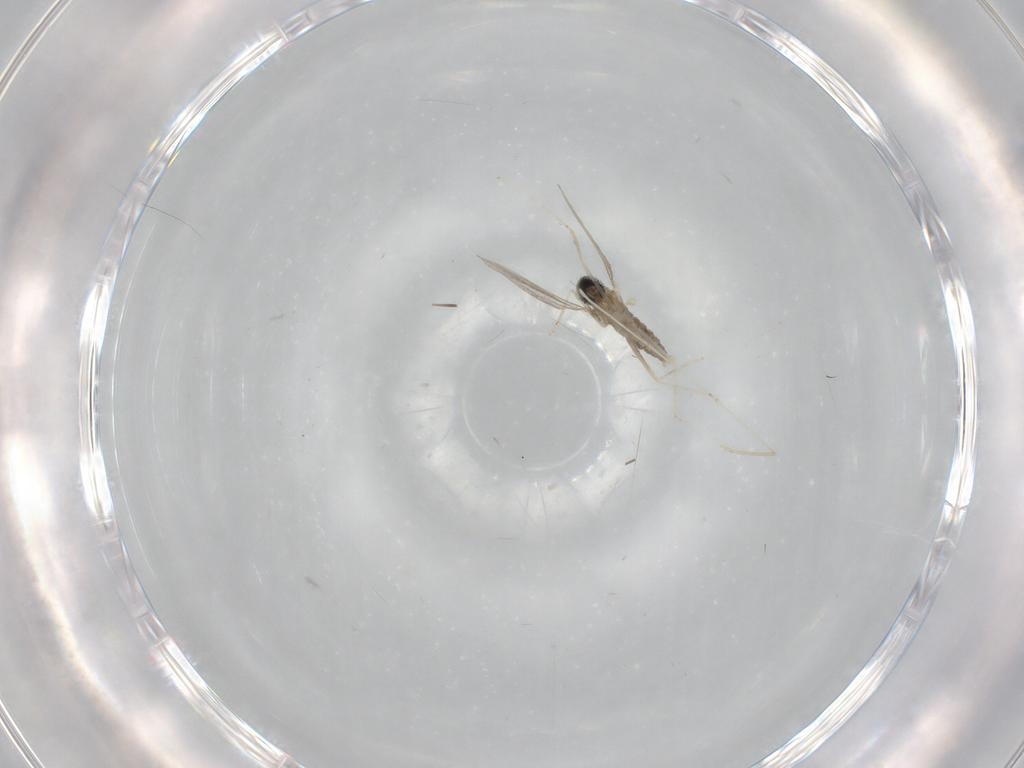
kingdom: Animalia
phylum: Arthropoda
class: Insecta
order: Diptera
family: Cecidomyiidae
